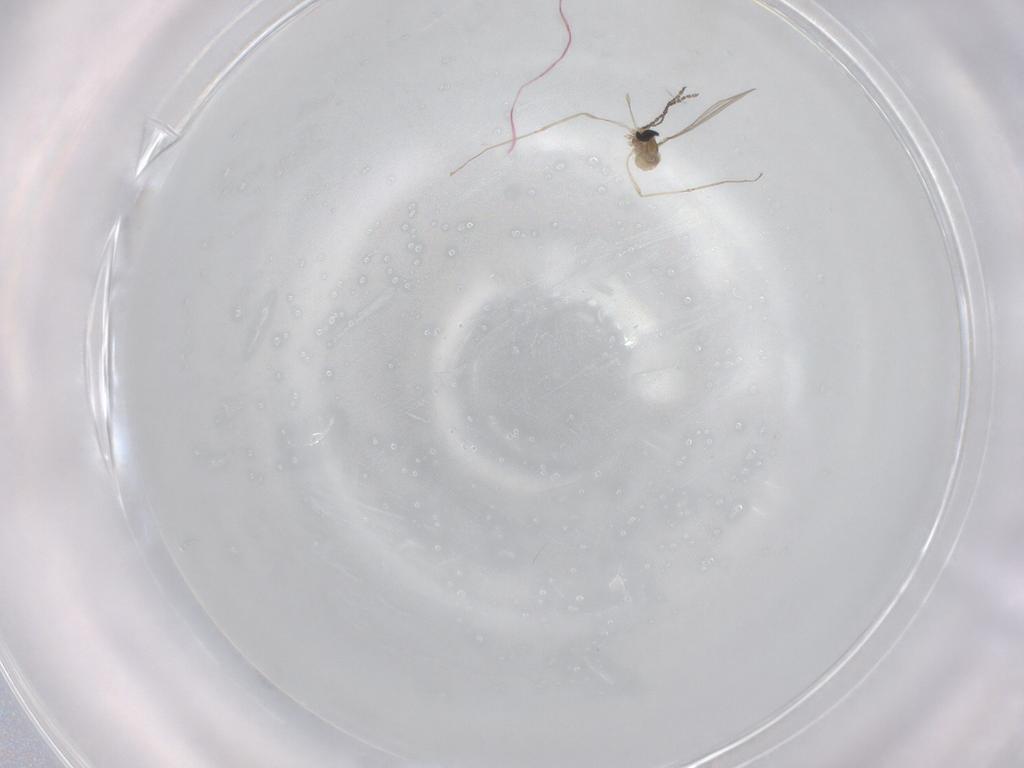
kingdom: Animalia
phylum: Arthropoda
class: Insecta
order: Diptera
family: Cecidomyiidae
